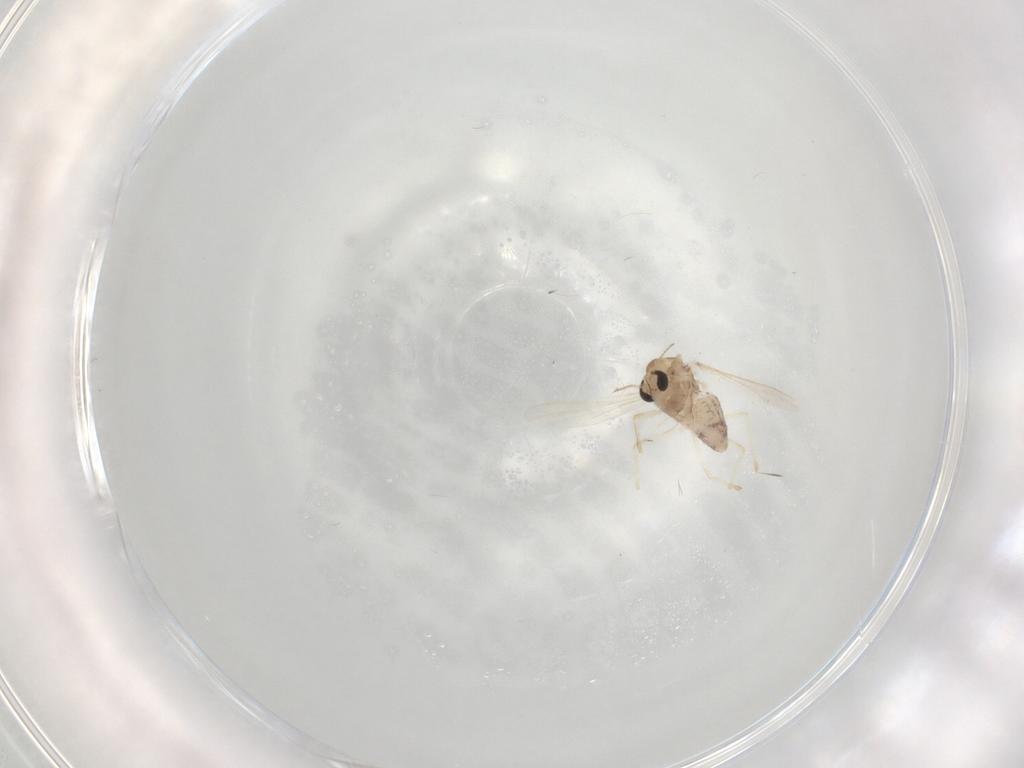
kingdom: Animalia
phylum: Arthropoda
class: Insecta
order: Diptera
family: Chironomidae
